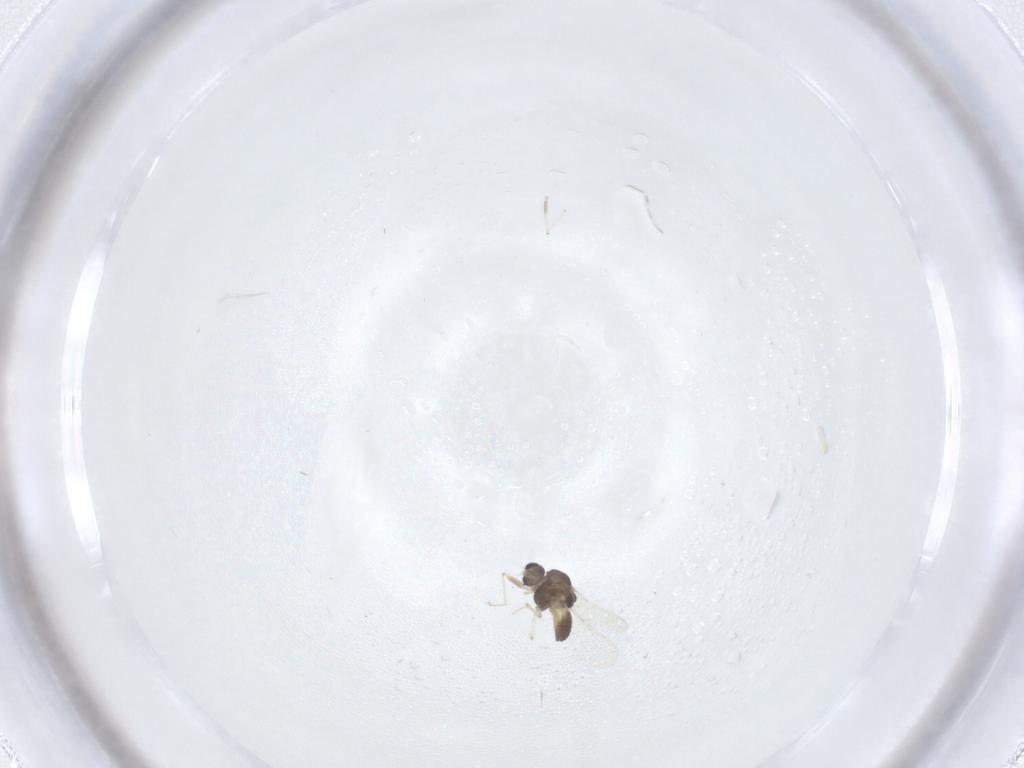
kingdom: Animalia
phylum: Arthropoda
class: Insecta
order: Diptera
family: Chironomidae
